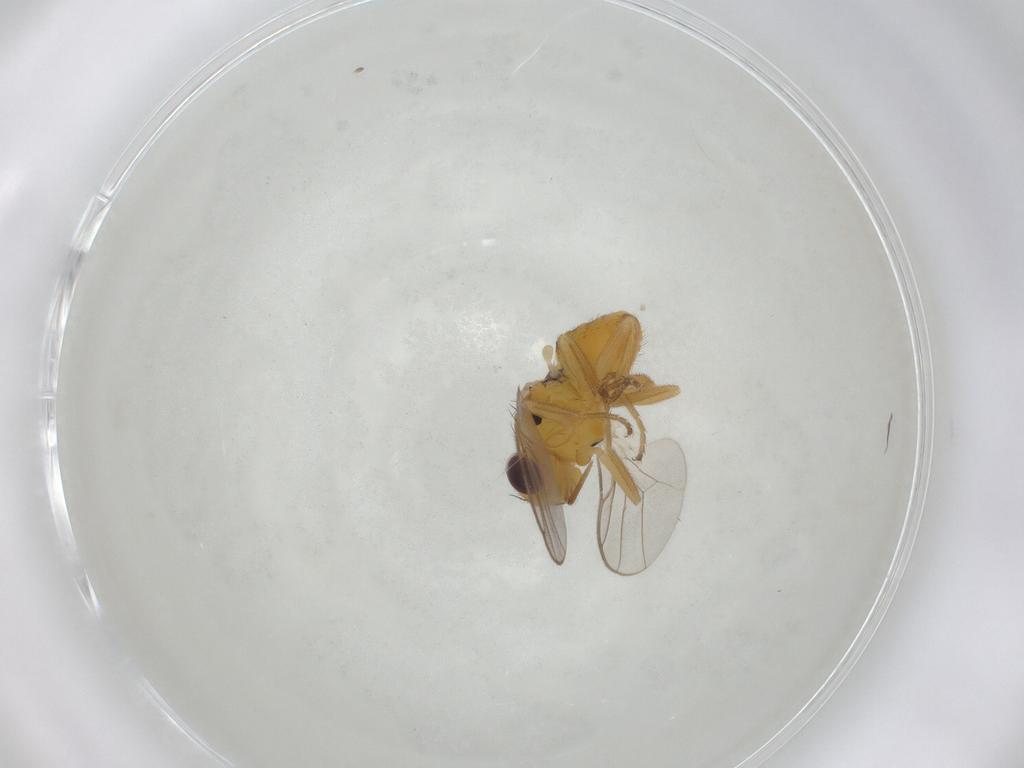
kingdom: Animalia
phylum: Arthropoda
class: Insecta
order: Diptera
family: Chloropidae
